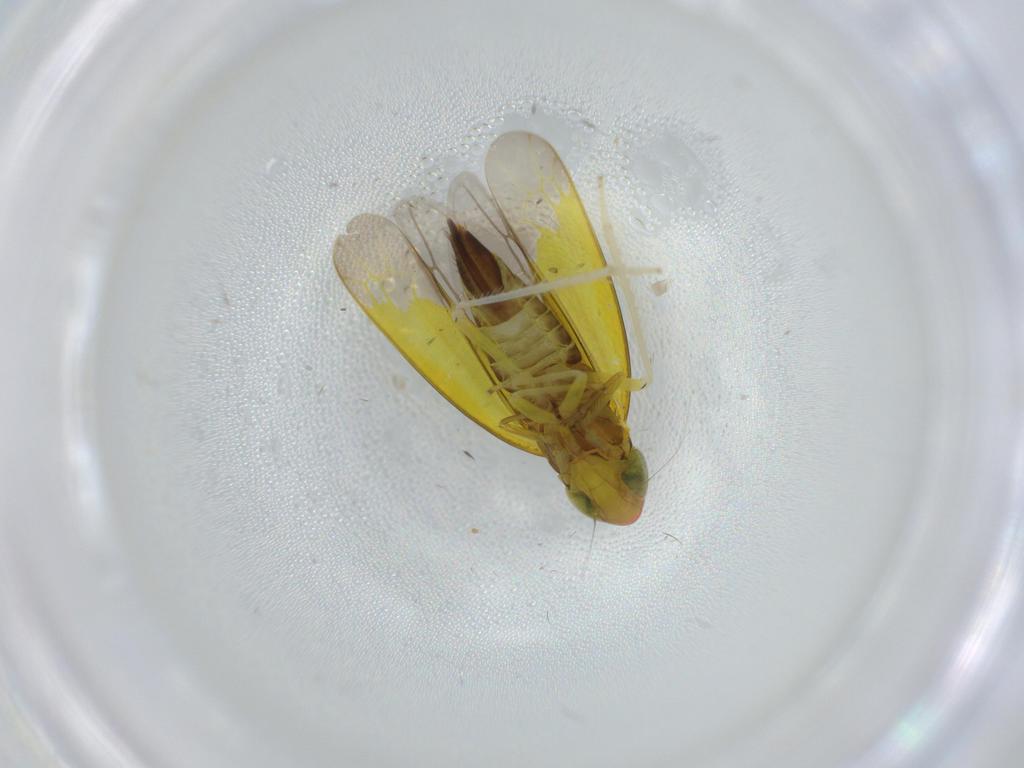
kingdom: Animalia
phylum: Arthropoda
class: Insecta
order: Hemiptera
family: Cicadellidae
